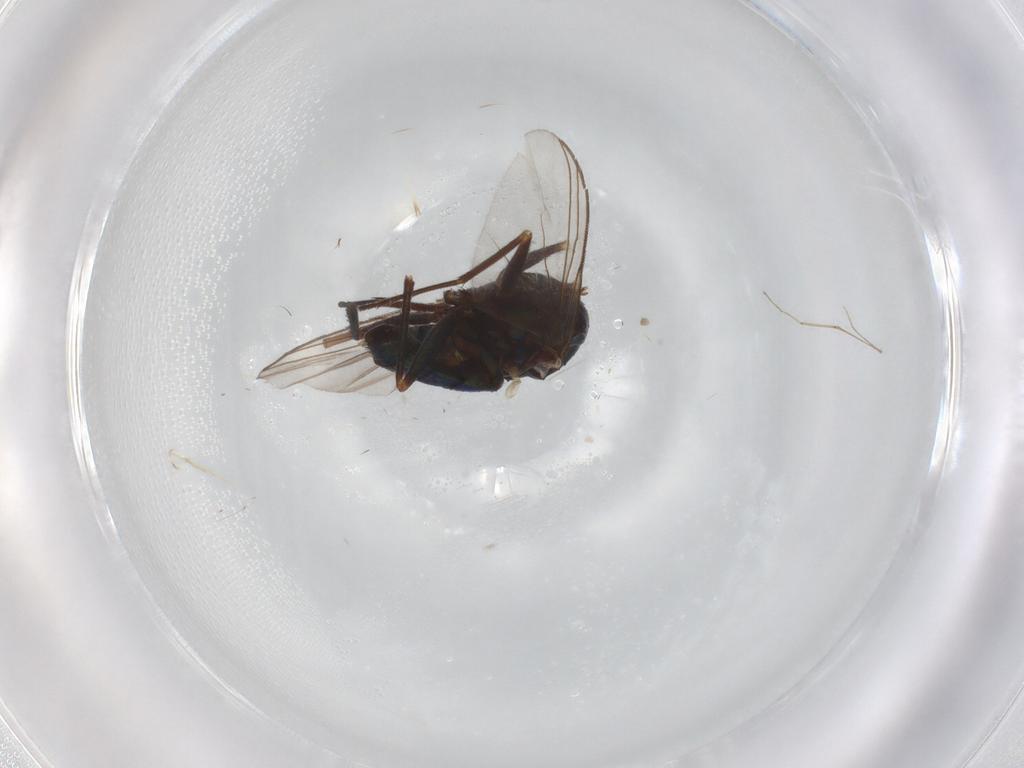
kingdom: Animalia
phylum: Arthropoda
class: Insecta
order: Diptera
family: Dolichopodidae
